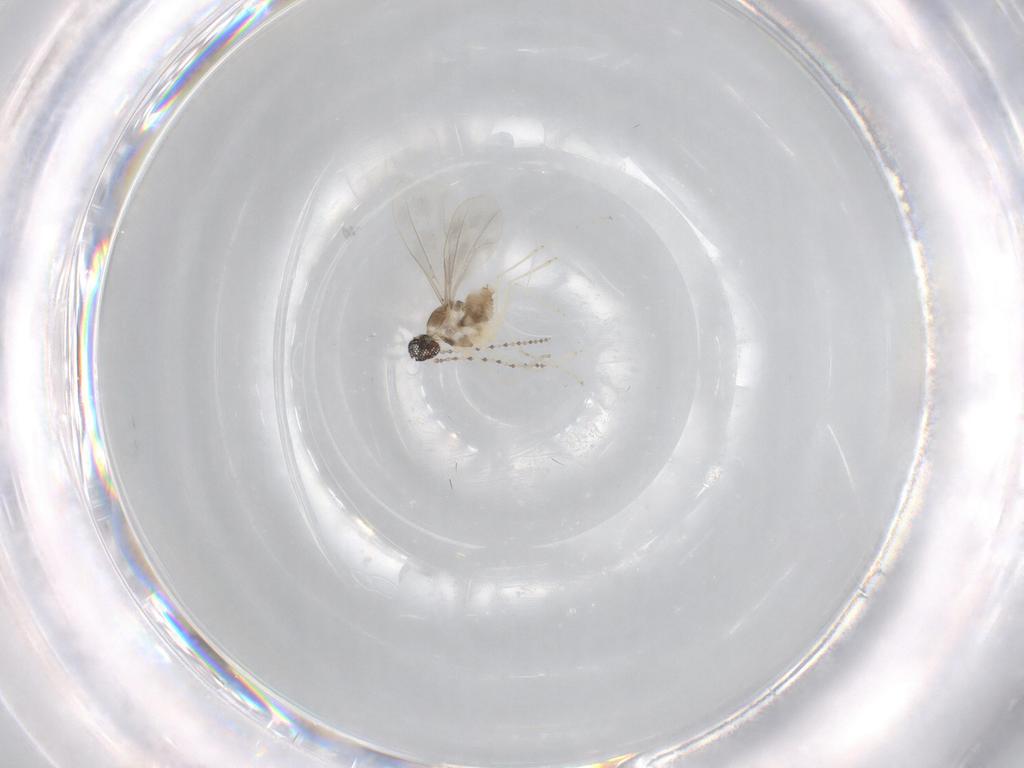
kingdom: Animalia
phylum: Arthropoda
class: Insecta
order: Diptera
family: Cecidomyiidae
